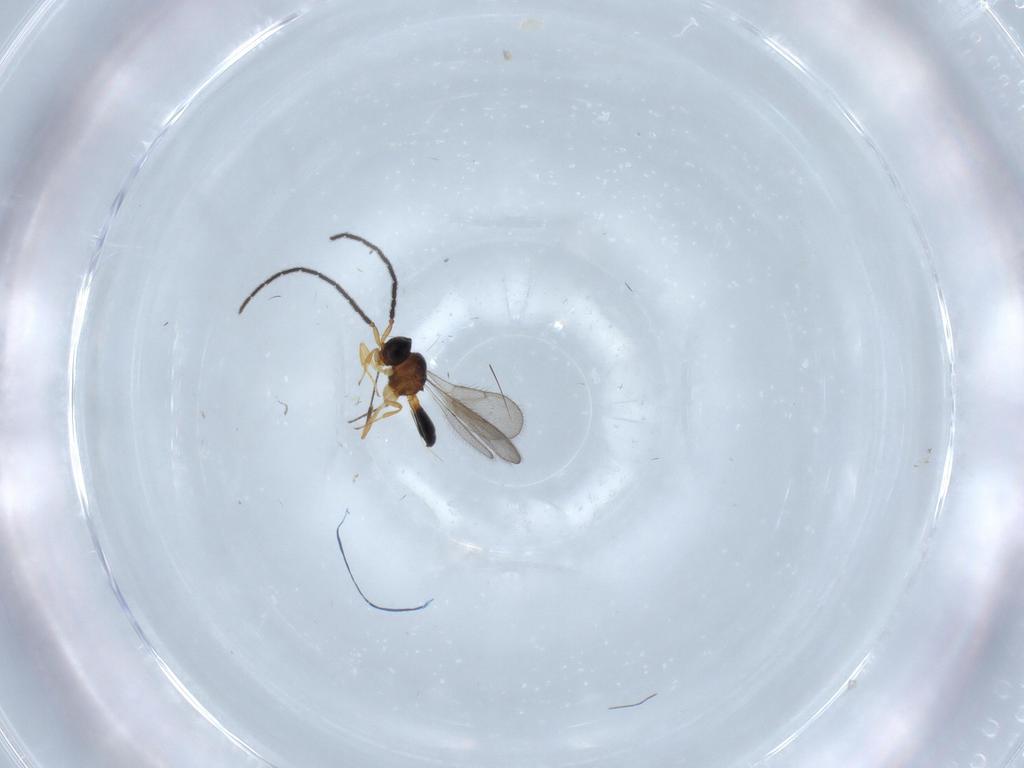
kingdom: Animalia
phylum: Arthropoda
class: Insecta
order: Hymenoptera
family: Scelionidae
